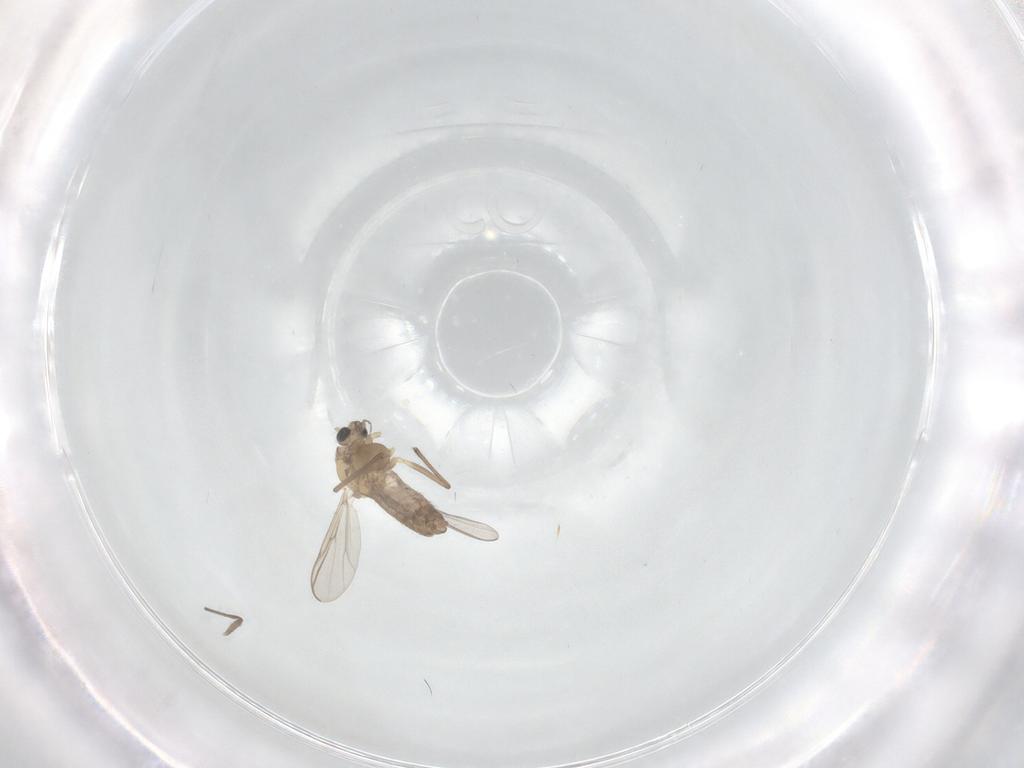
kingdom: Animalia
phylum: Arthropoda
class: Insecta
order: Diptera
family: Chironomidae
